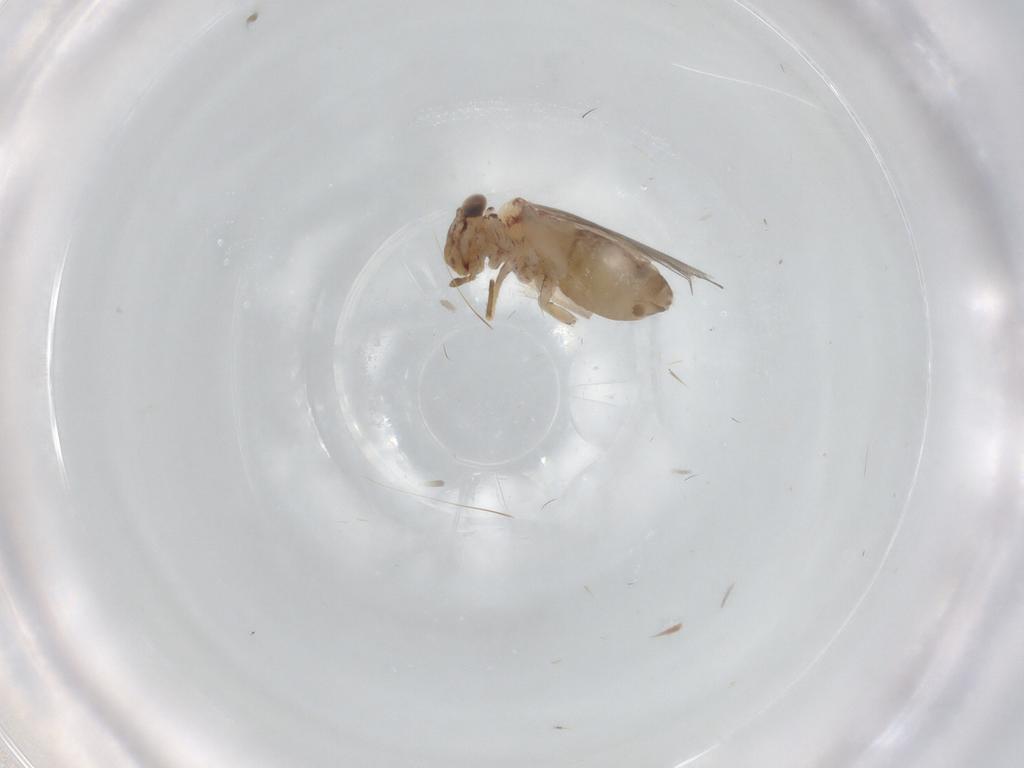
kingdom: Animalia
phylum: Arthropoda
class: Insecta
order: Psocodea
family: Lepidopsocidae
